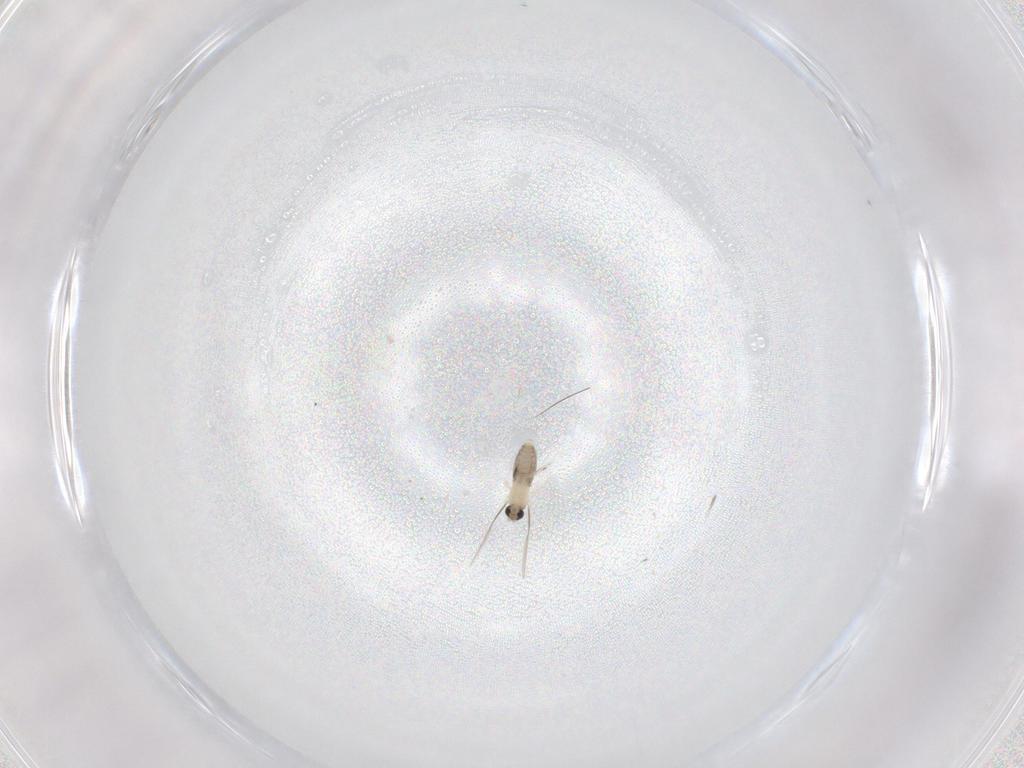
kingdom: Animalia
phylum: Arthropoda
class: Insecta
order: Diptera
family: Cecidomyiidae
